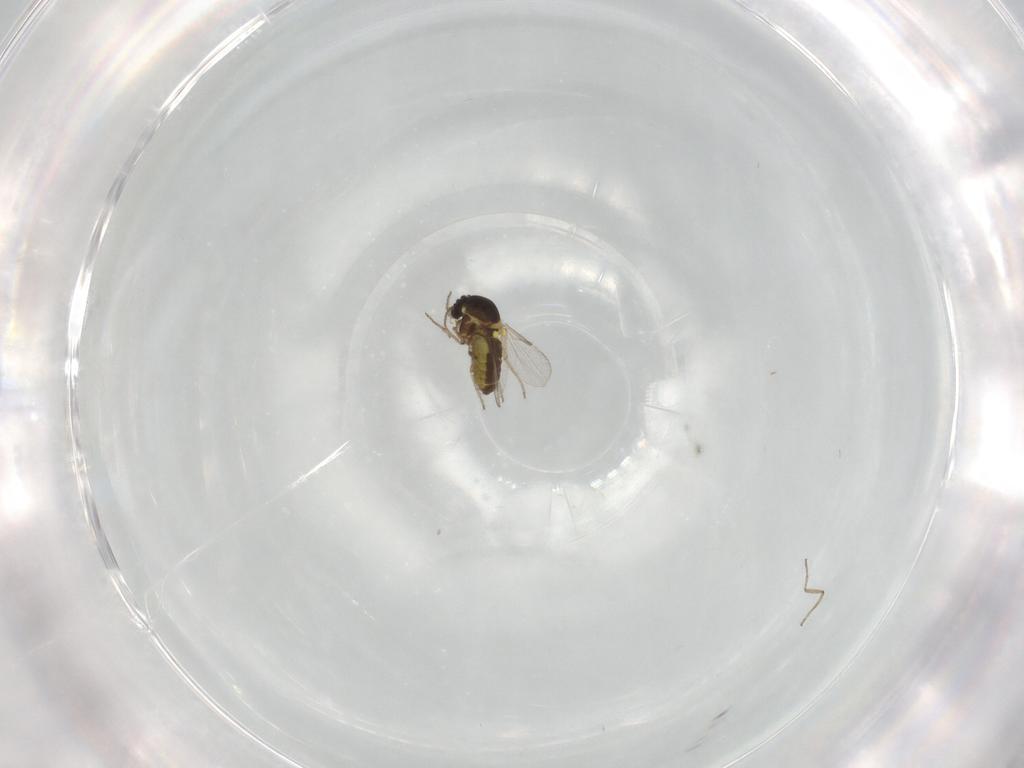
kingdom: Animalia
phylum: Arthropoda
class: Insecta
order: Diptera
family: Ceratopogonidae
